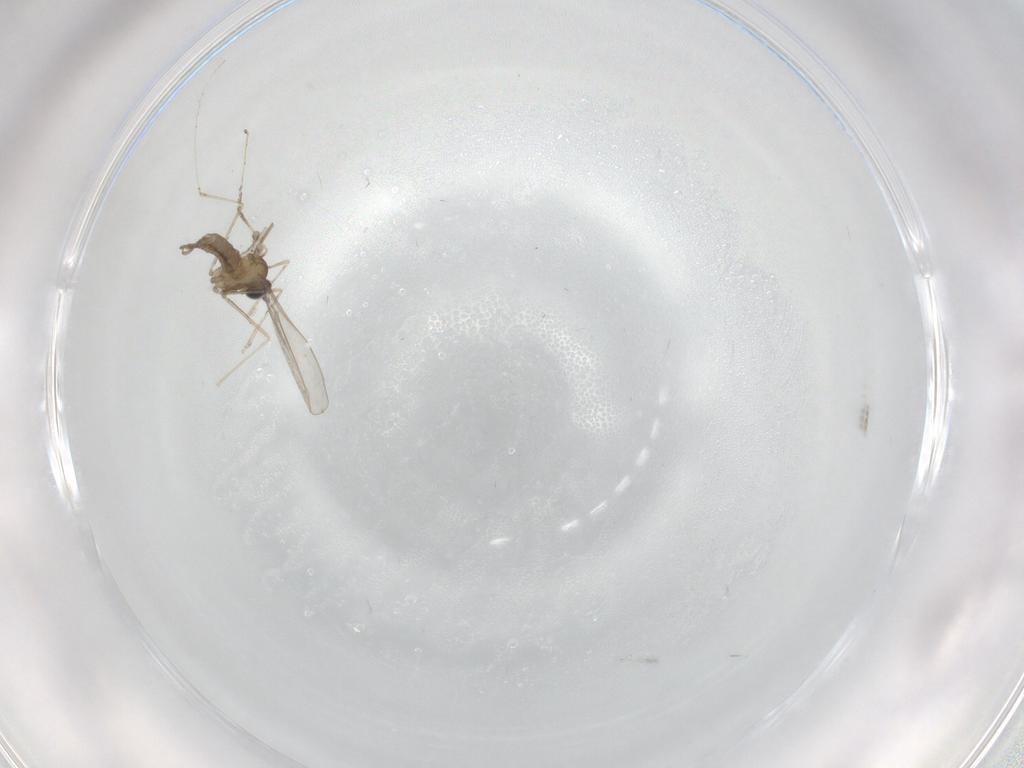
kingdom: Animalia
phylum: Arthropoda
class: Insecta
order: Diptera
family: Cecidomyiidae
